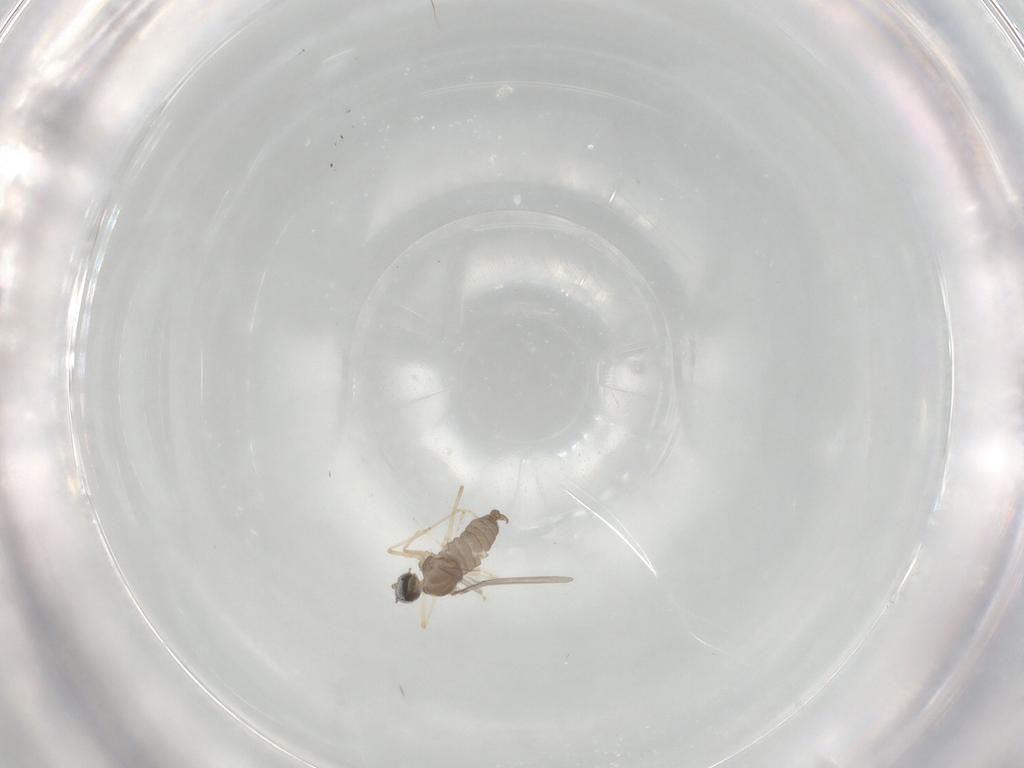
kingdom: Animalia
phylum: Arthropoda
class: Insecta
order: Diptera
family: Cecidomyiidae
